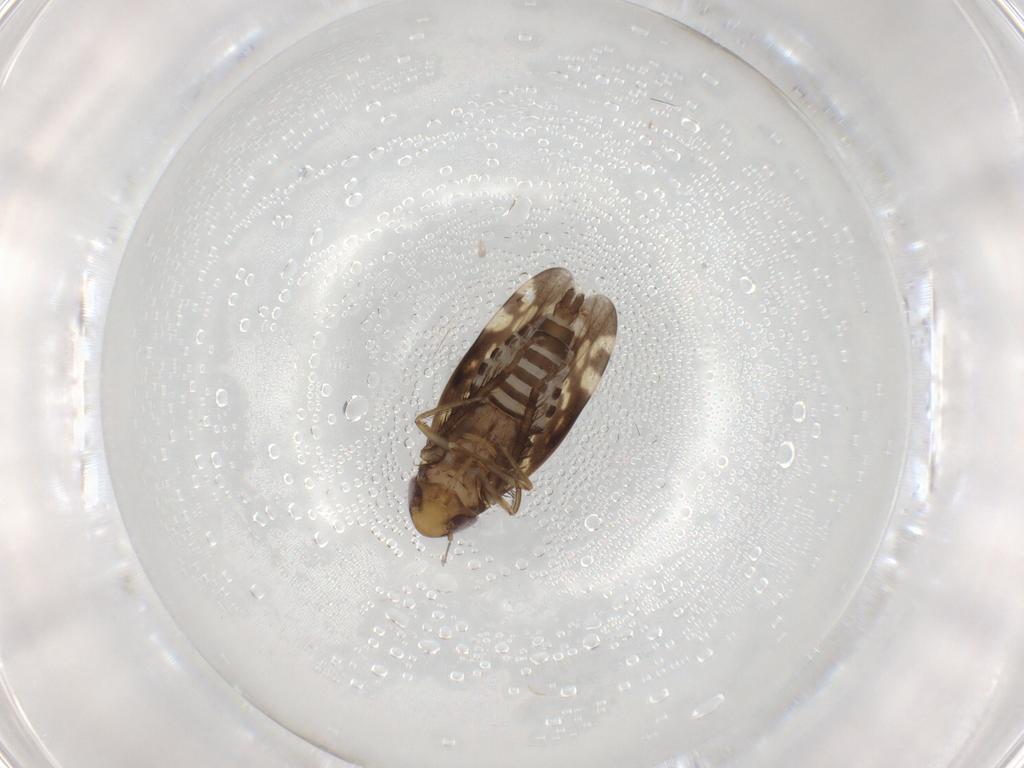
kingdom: Animalia
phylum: Arthropoda
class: Insecta
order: Hemiptera
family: Cicadellidae
